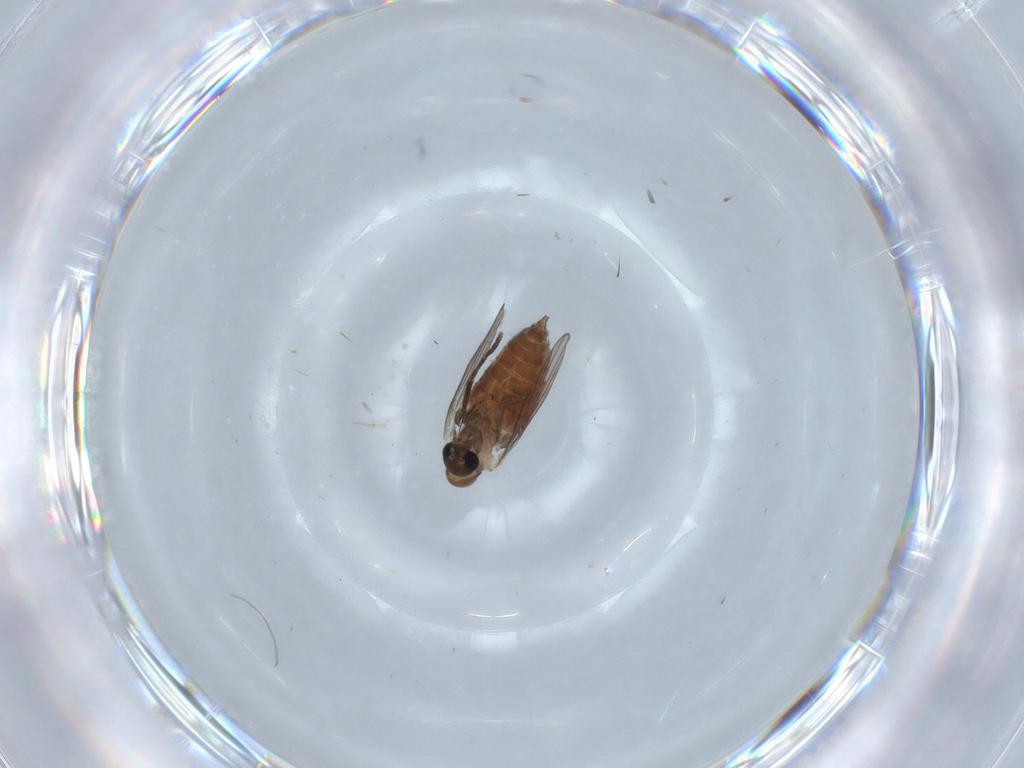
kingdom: Animalia
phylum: Arthropoda
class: Insecta
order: Diptera
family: Psychodidae
